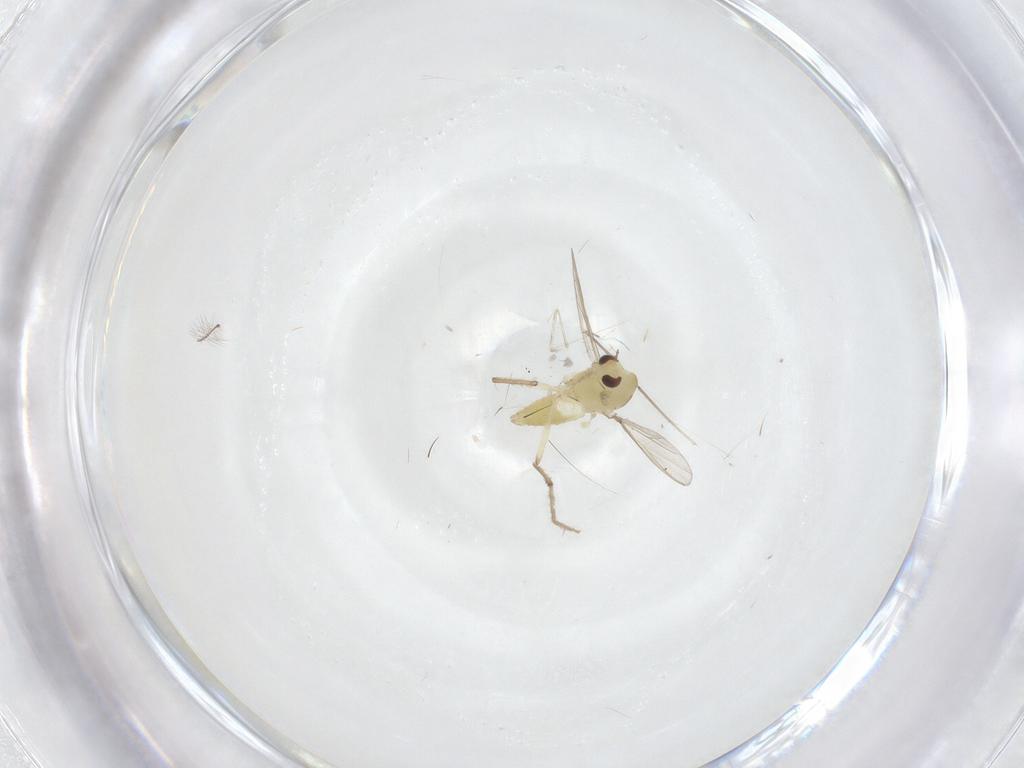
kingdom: Animalia
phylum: Arthropoda
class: Insecta
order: Diptera
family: Chironomidae
